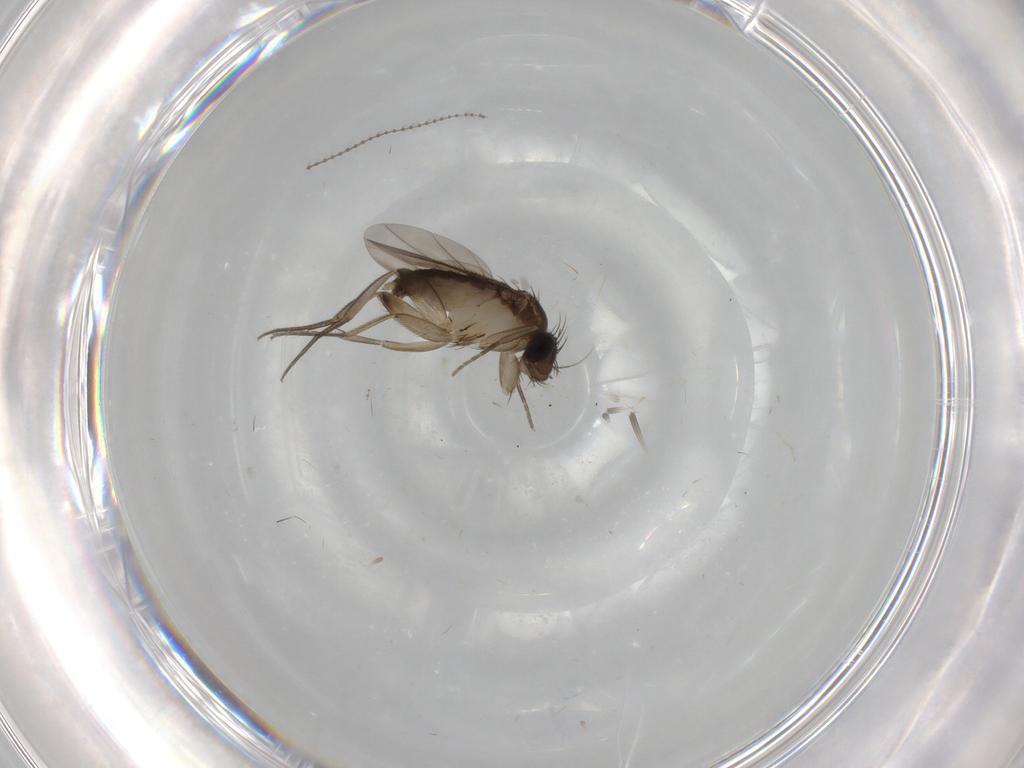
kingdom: Animalia
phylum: Arthropoda
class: Insecta
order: Diptera
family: Phoridae
